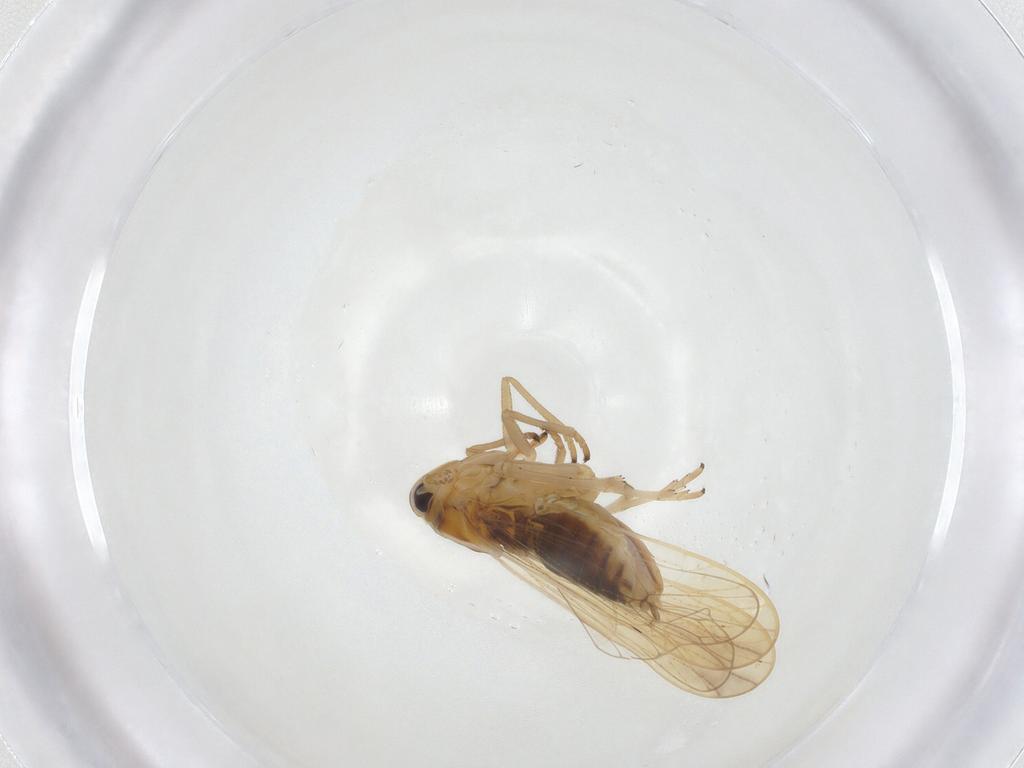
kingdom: Animalia
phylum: Arthropoda
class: Insecta
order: Hemiptera
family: Delphacidae
